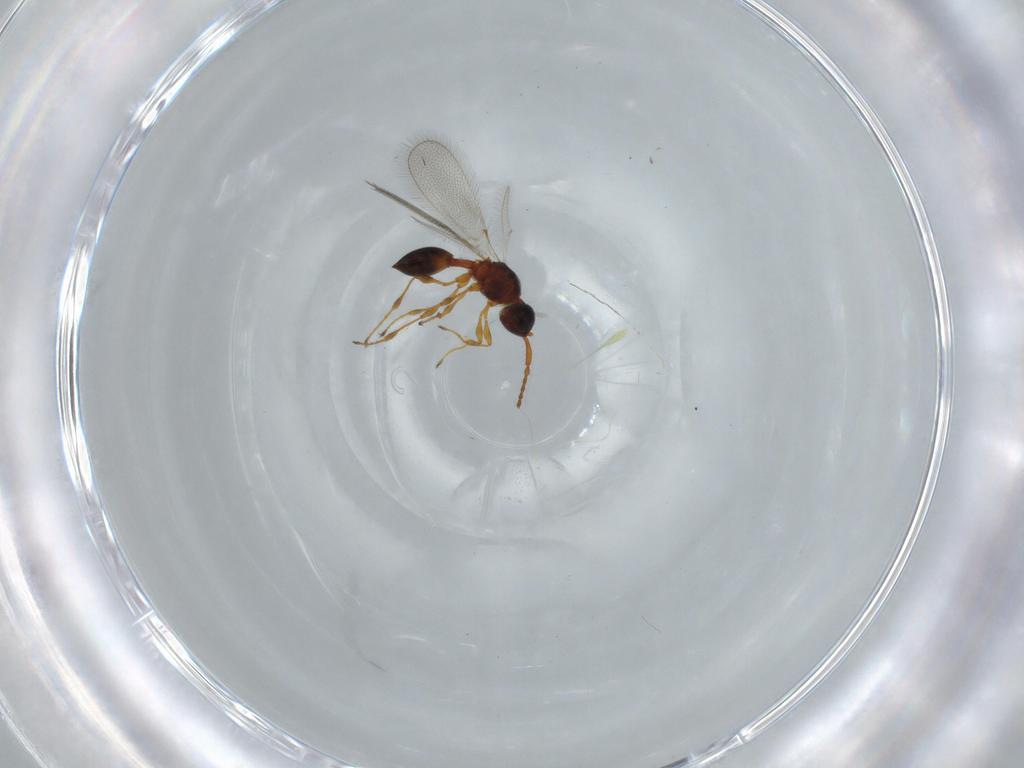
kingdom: Animalia
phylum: Arthropoda
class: Insecta
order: Hymenoptera
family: Diapriidae
